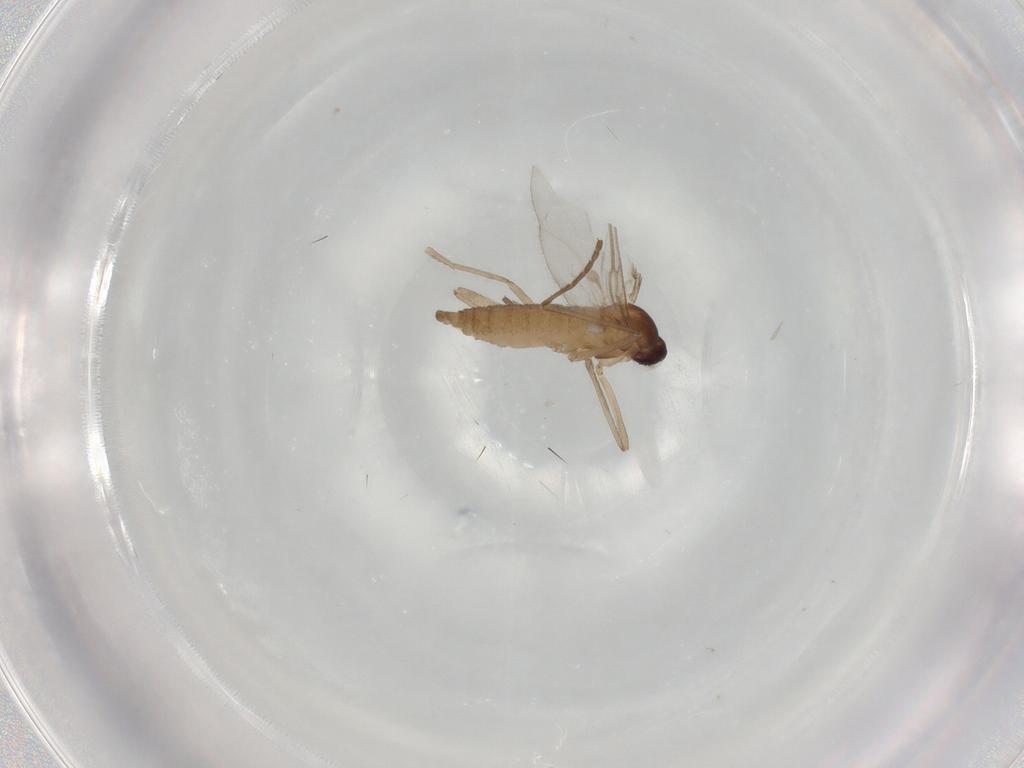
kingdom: Animalia
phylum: Arthropoda
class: Insecta
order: Diptera
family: Cecidomyiidae
